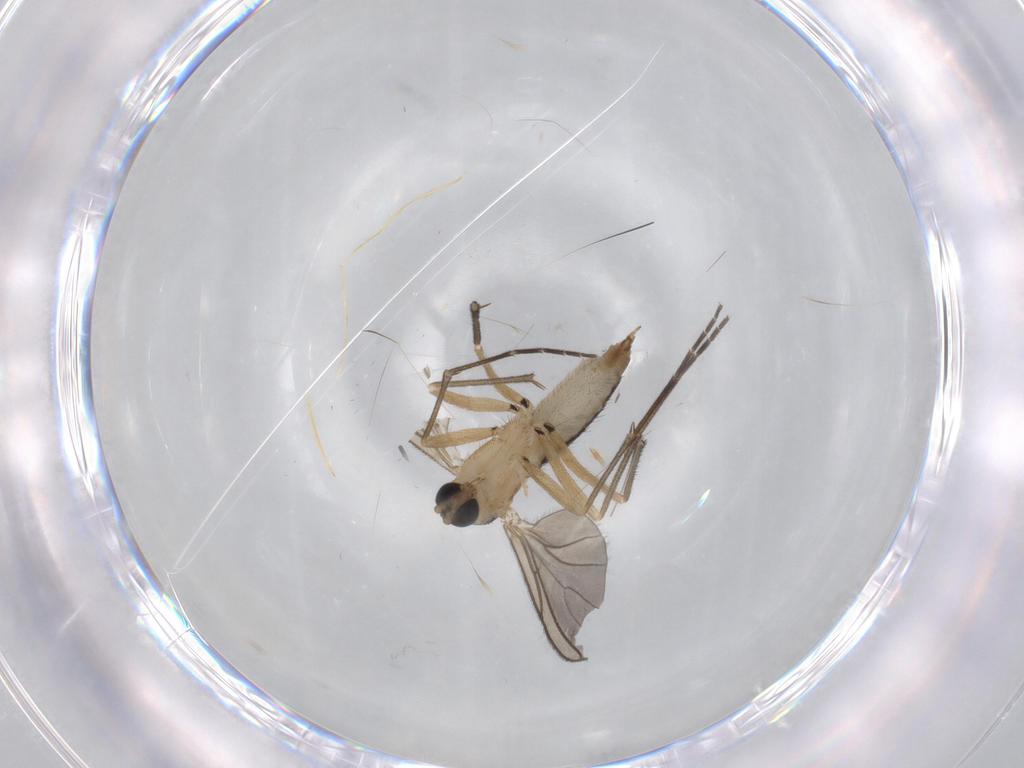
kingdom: Animalia
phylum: Arthropoda
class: Insecta
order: Diptera
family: Sciaridae
